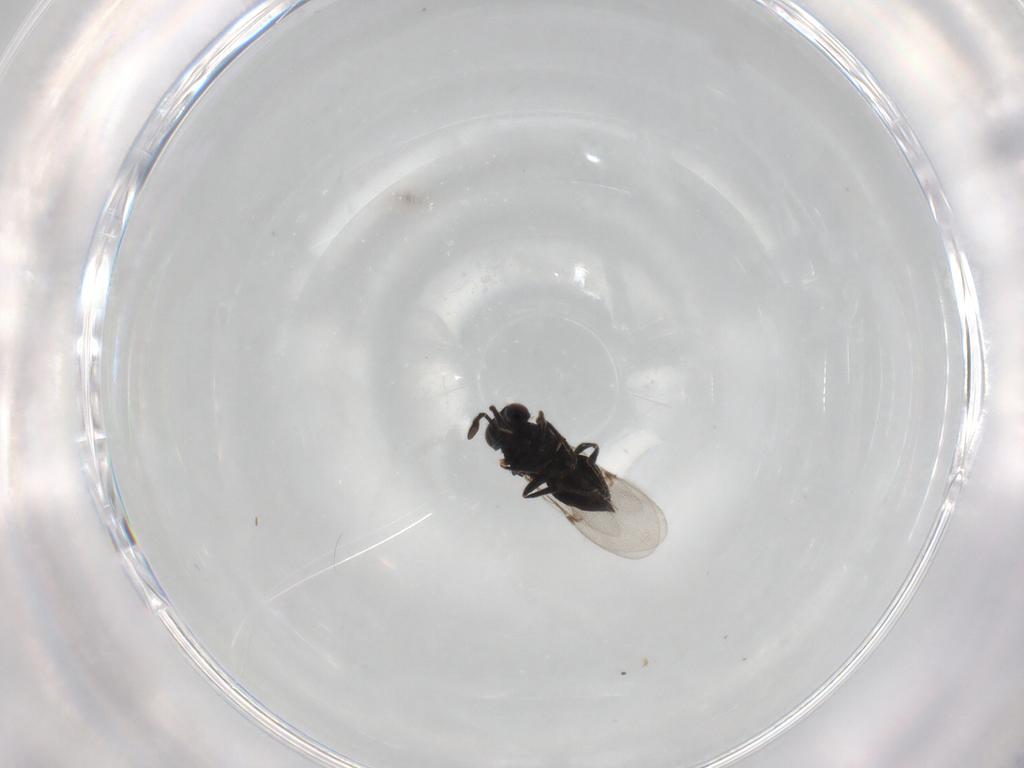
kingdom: Animalia
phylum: Arthropoda
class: Insecta
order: Hymenoptera
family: Encyrtidae
